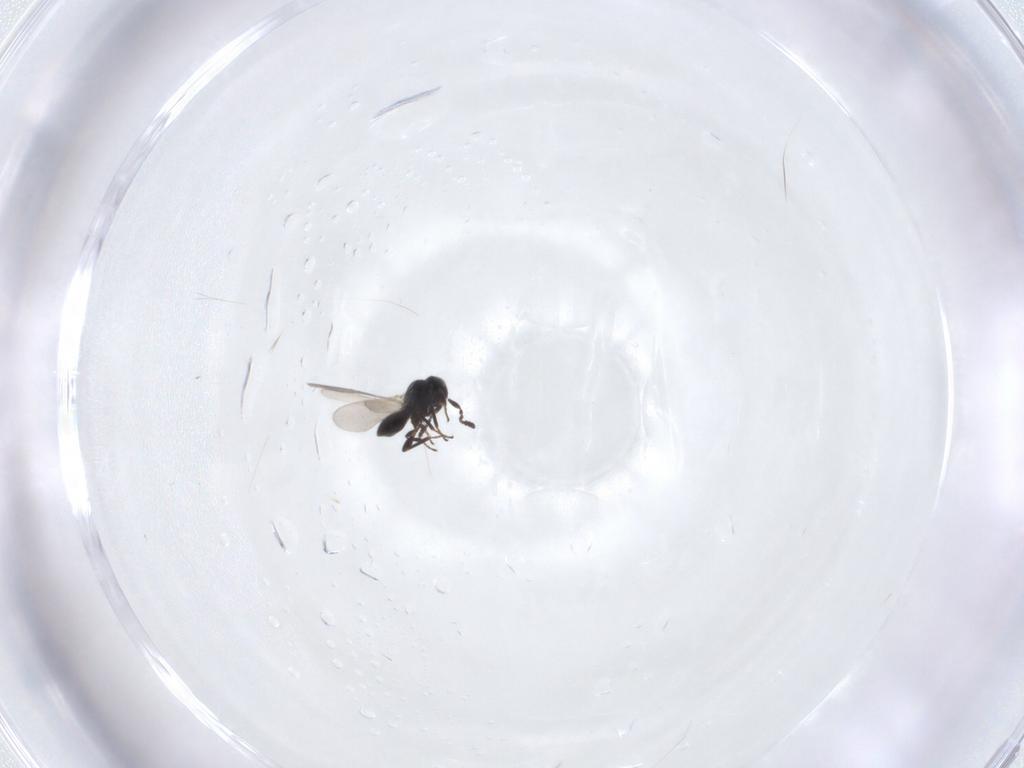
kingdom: Animalia
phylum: Arthropoda
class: Insecta
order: Hymenoptera
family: Platygastridae
